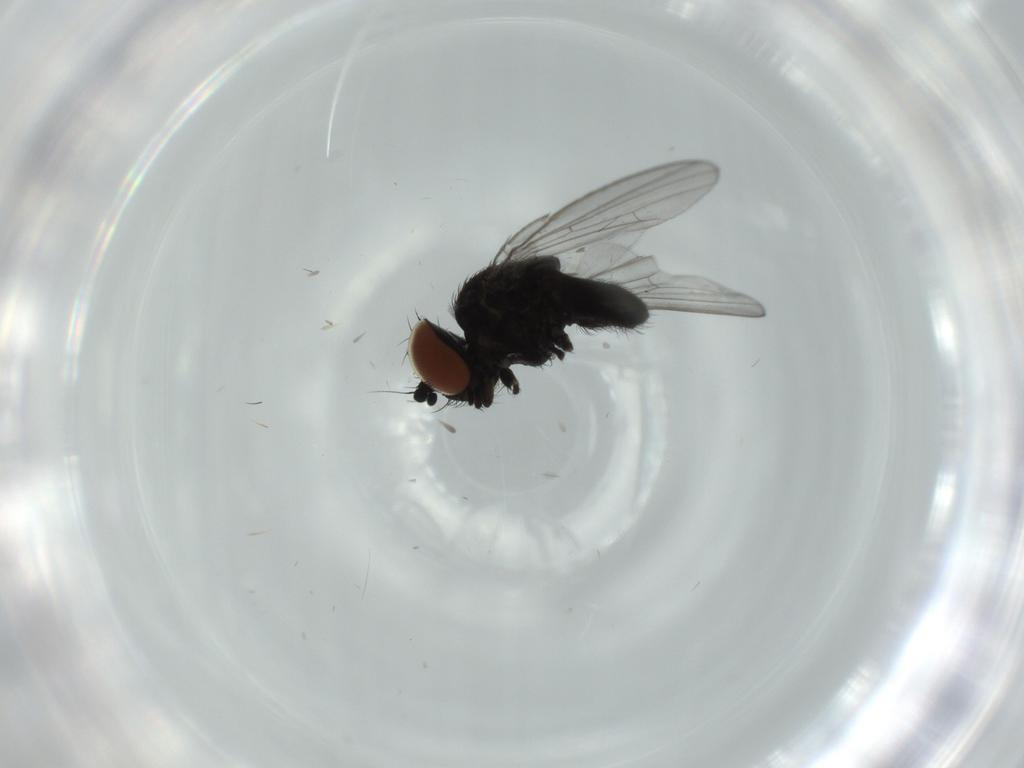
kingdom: Animalia
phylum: Arthropoda
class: Insecta
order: Diptera
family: Milichiidae
